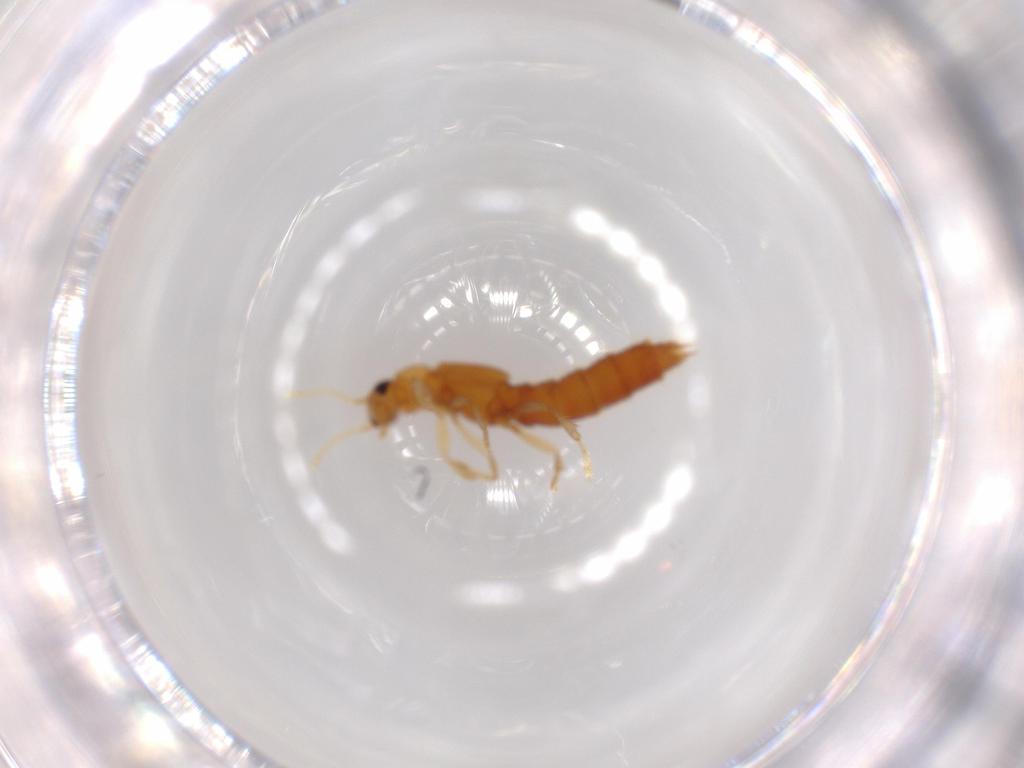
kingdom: Animalia
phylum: Arthropoda
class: Insecta
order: Coleoptera
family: Staphylinidae
